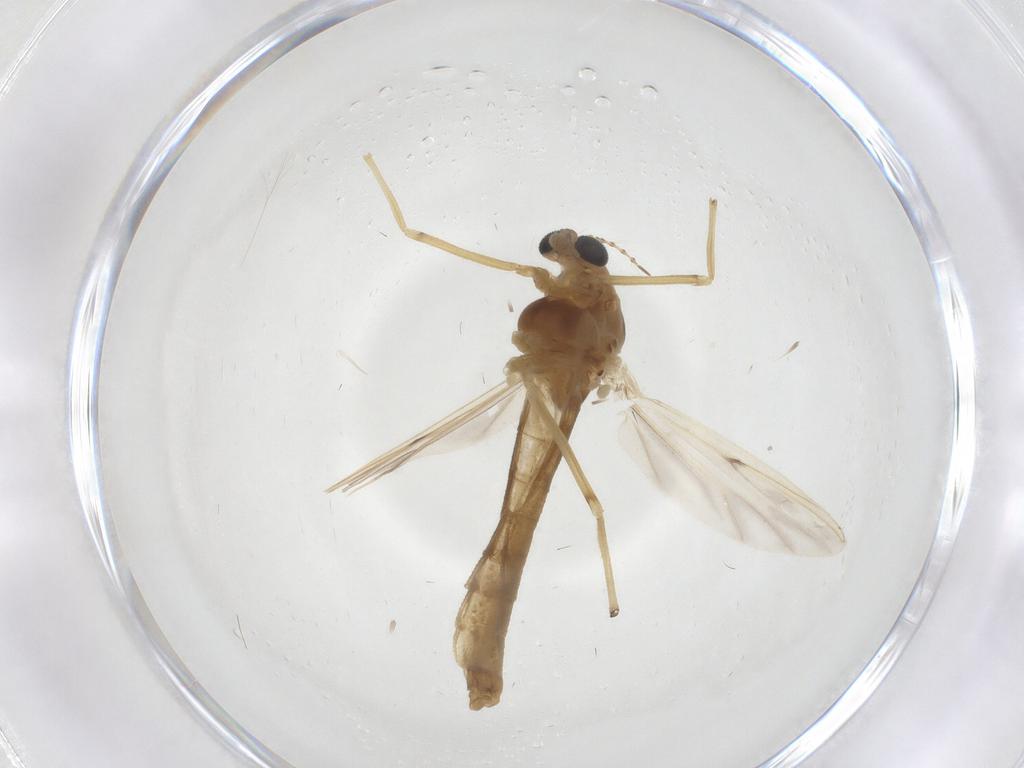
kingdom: Animalia
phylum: Arthropoda
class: Insecta
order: Diptera
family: Chironomidae
